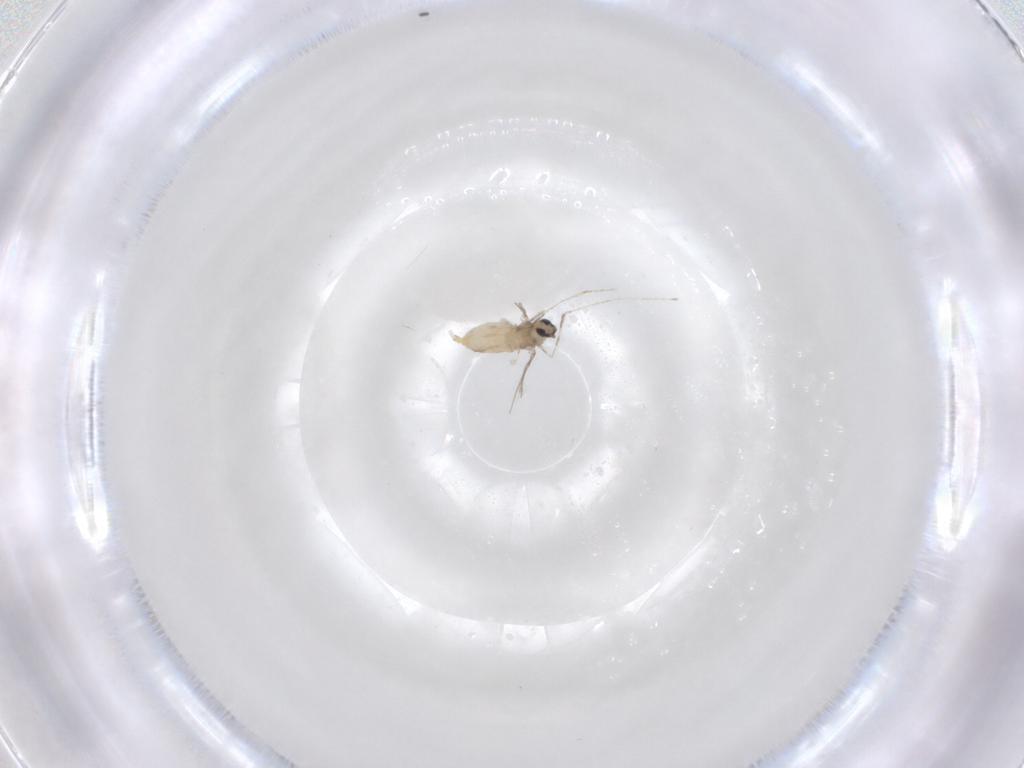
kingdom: Animalia
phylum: Arthropoda
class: Insecta
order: Diptera
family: Cecidomyiidae
